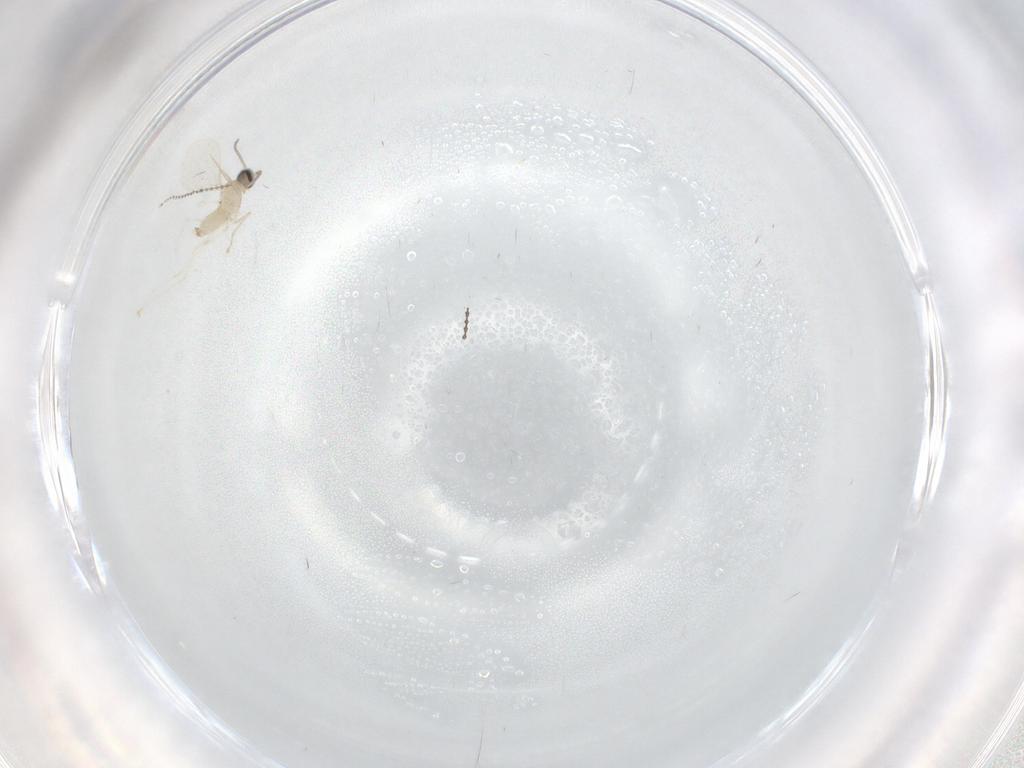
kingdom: Animalia
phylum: Arthropoda
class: Insecta
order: Diptera
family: Cecidomyiidae
